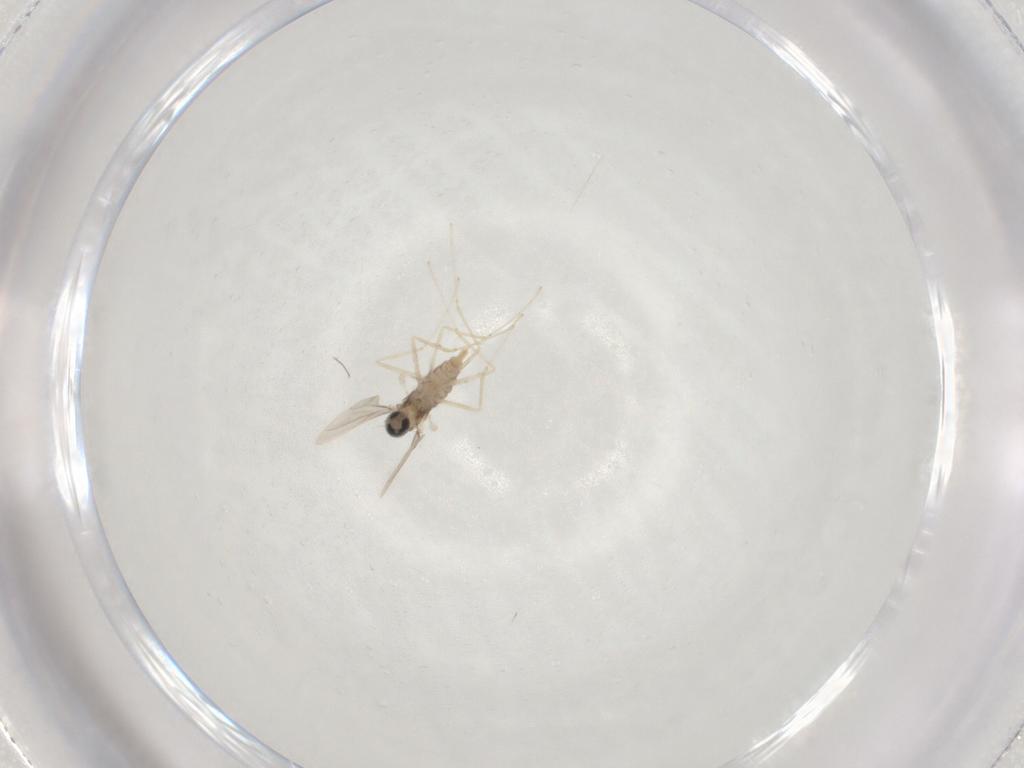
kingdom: Animalia
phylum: Arthropoda
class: Insecta
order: Diptera
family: Cecidomyiidae
